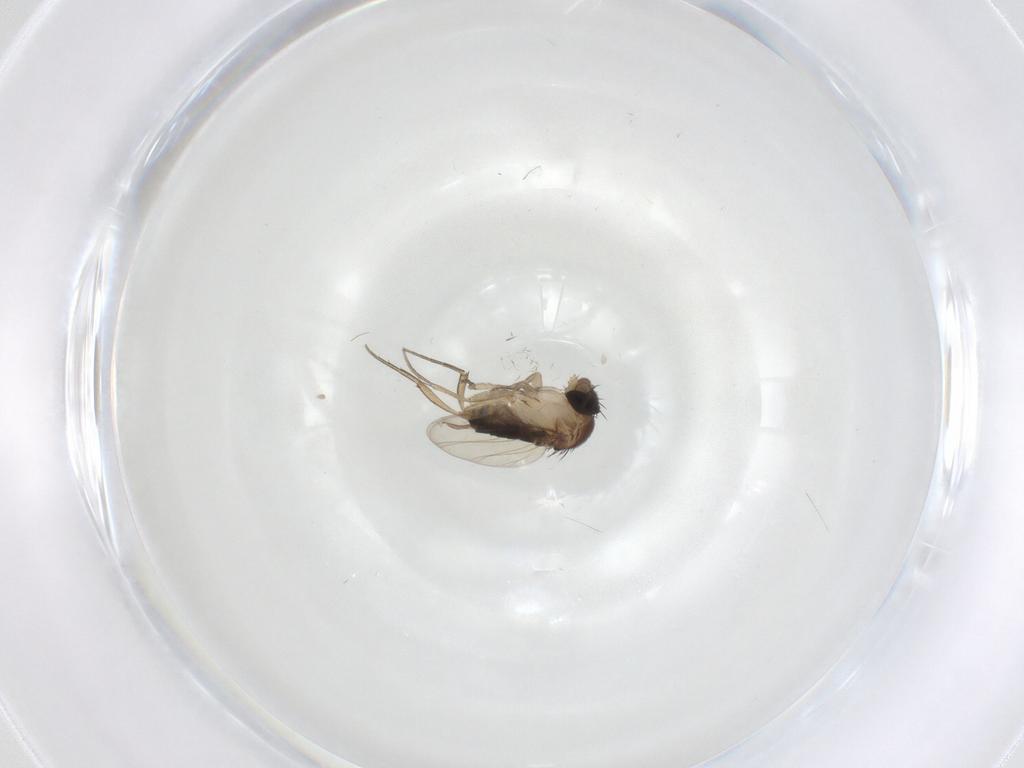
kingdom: Animalia
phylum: Arthropoda
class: Insecta
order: Diptera
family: Phoridae
